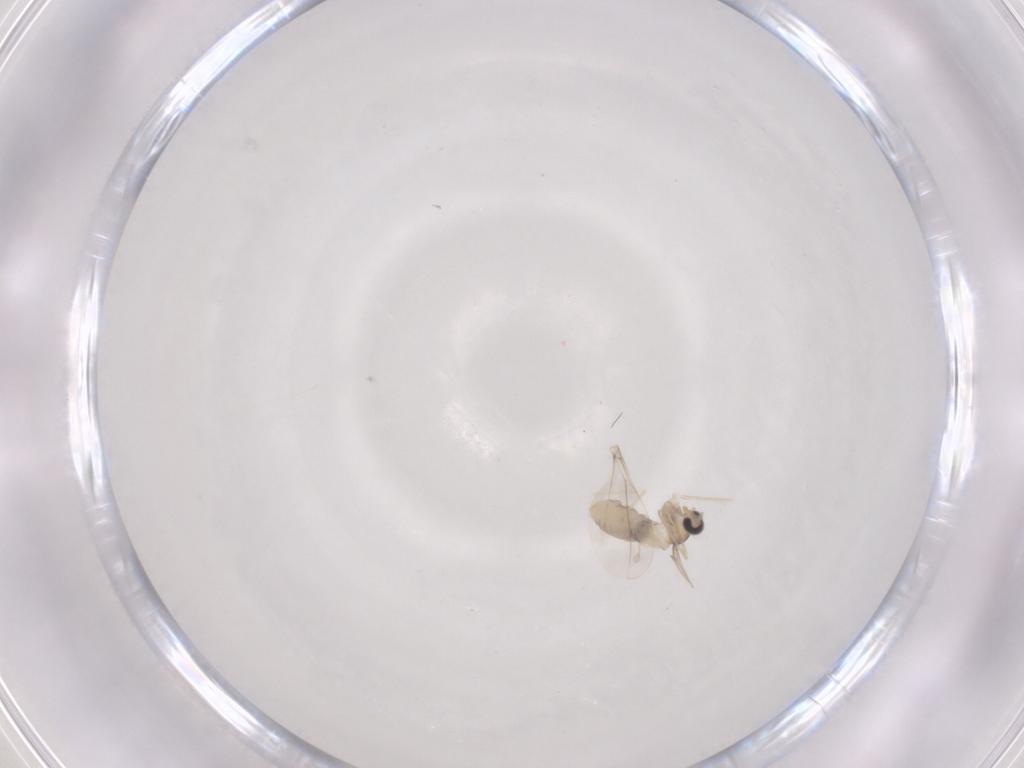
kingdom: Animalia
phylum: Arthropoda
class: Insecta
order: Diptera
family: Cecidomyiidae
